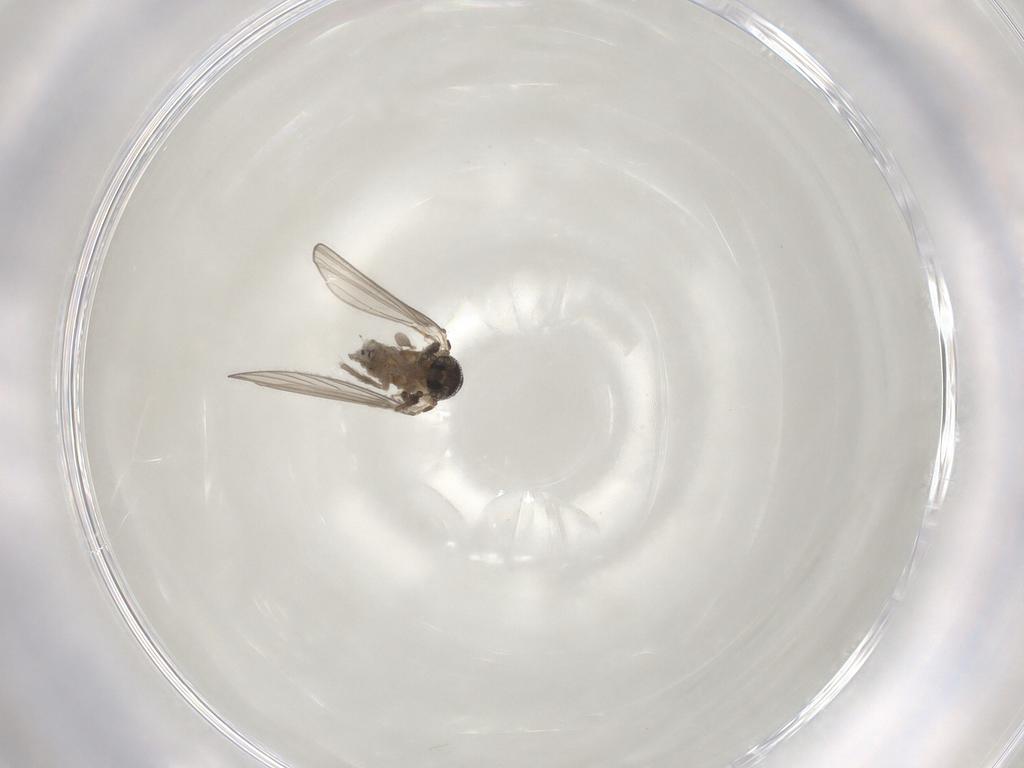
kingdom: Animalia
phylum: Arthropoda
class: Insecta
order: Diptera
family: Psychodidae
